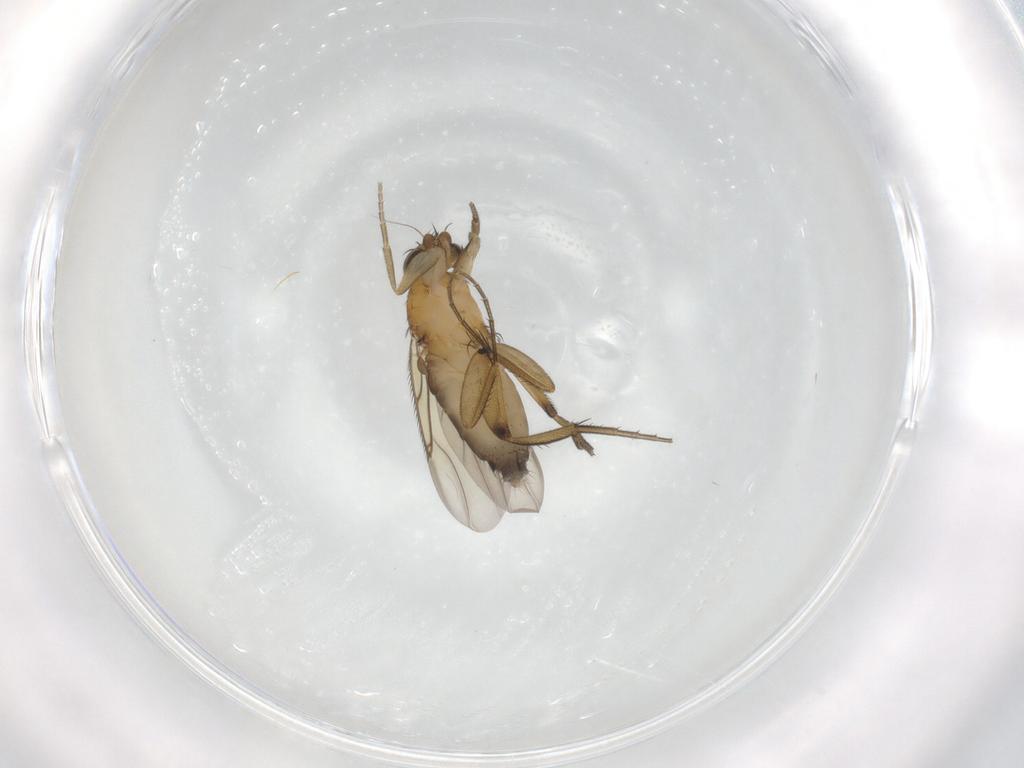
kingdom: Animalia
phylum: Arthropoda
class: Insecta
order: Diptera
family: Phoridae
